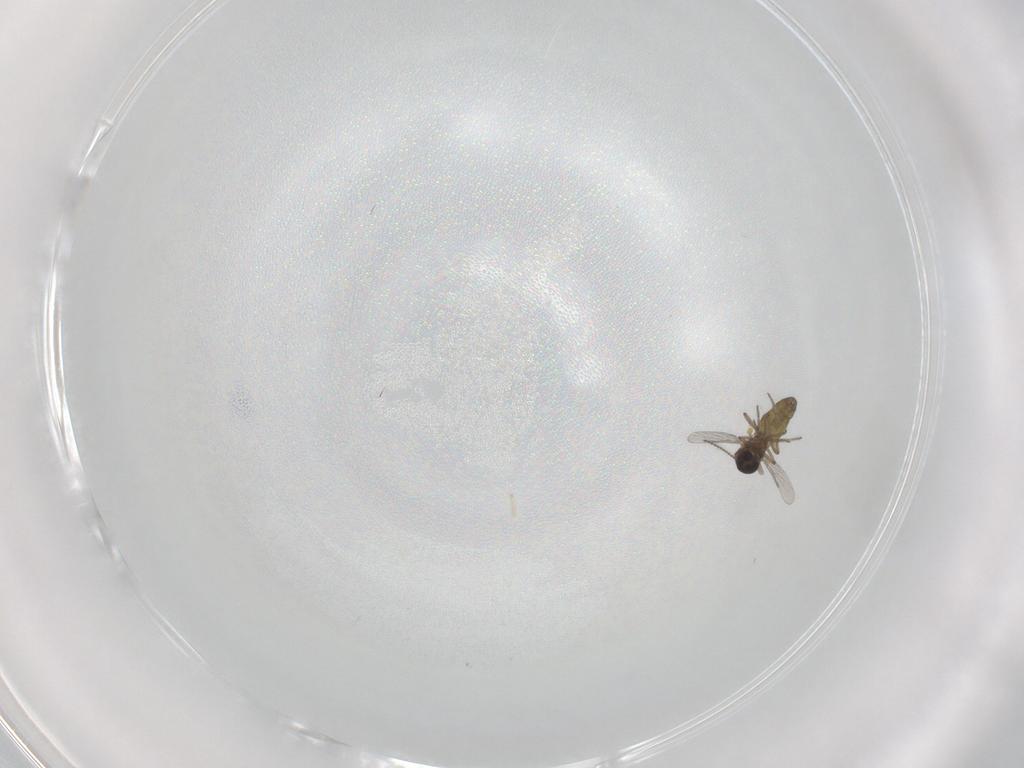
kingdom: Animalia
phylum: Arthropoda
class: Insecta
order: Diptera
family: Ceratopogonidae
